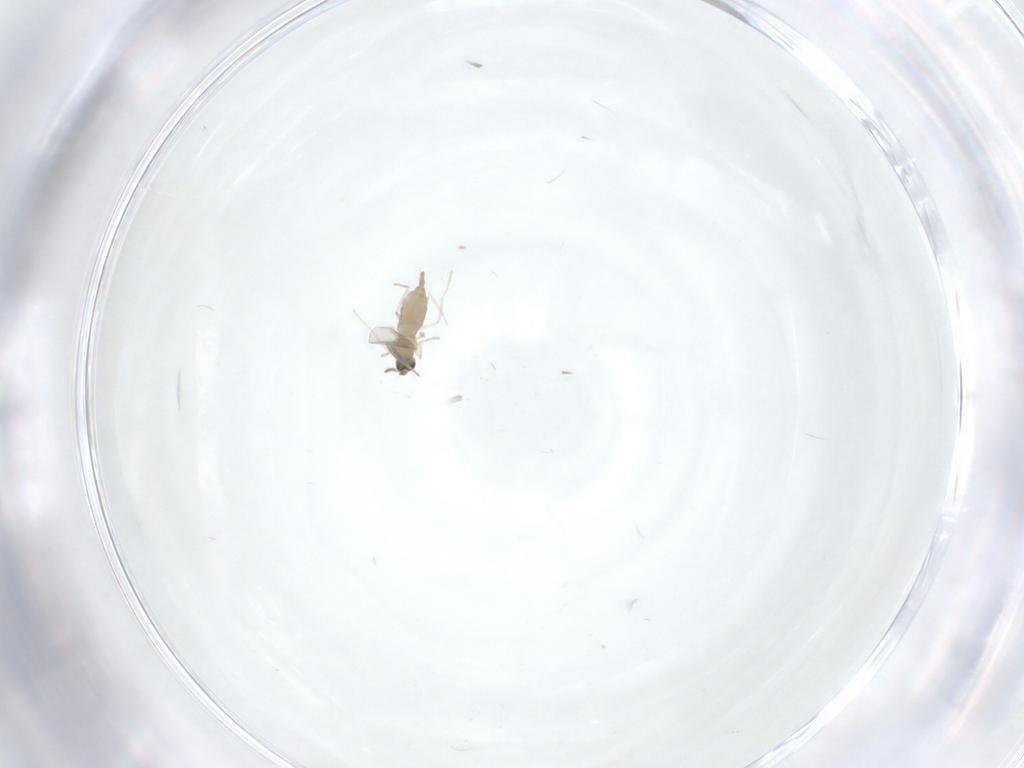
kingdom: Animalia
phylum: Arthropoda
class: Insecta
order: Diptera
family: Cecidomyiidae
